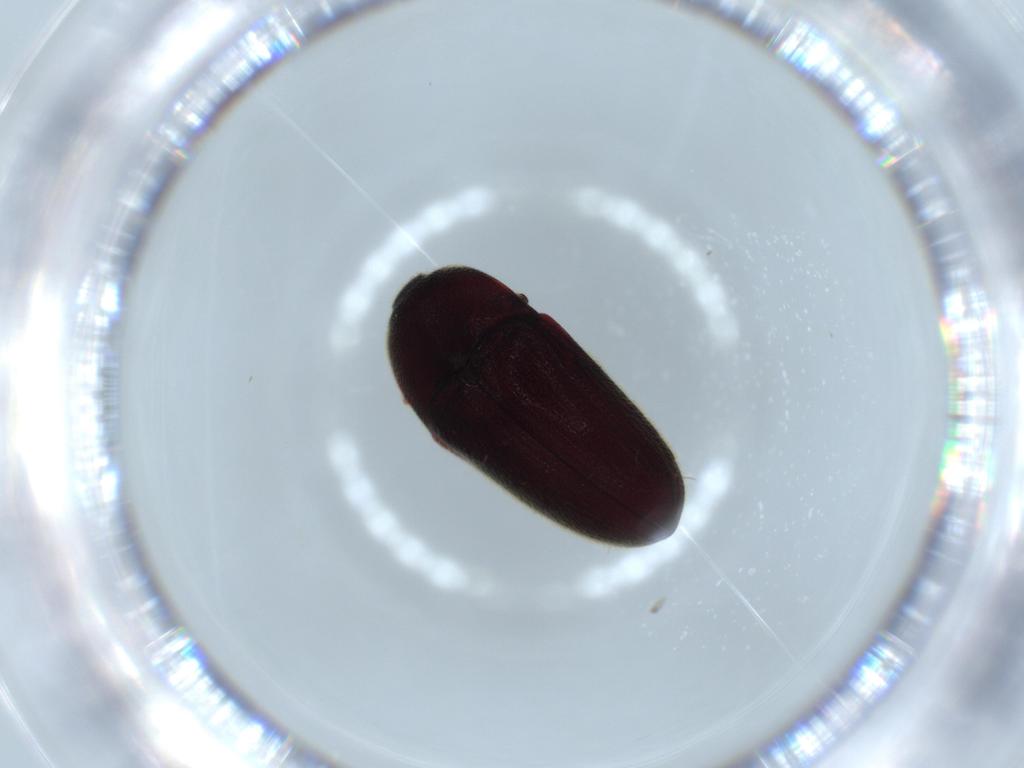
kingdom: Animalia
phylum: Arthropoda
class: Insecta
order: Coleoptera
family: Throscidae
